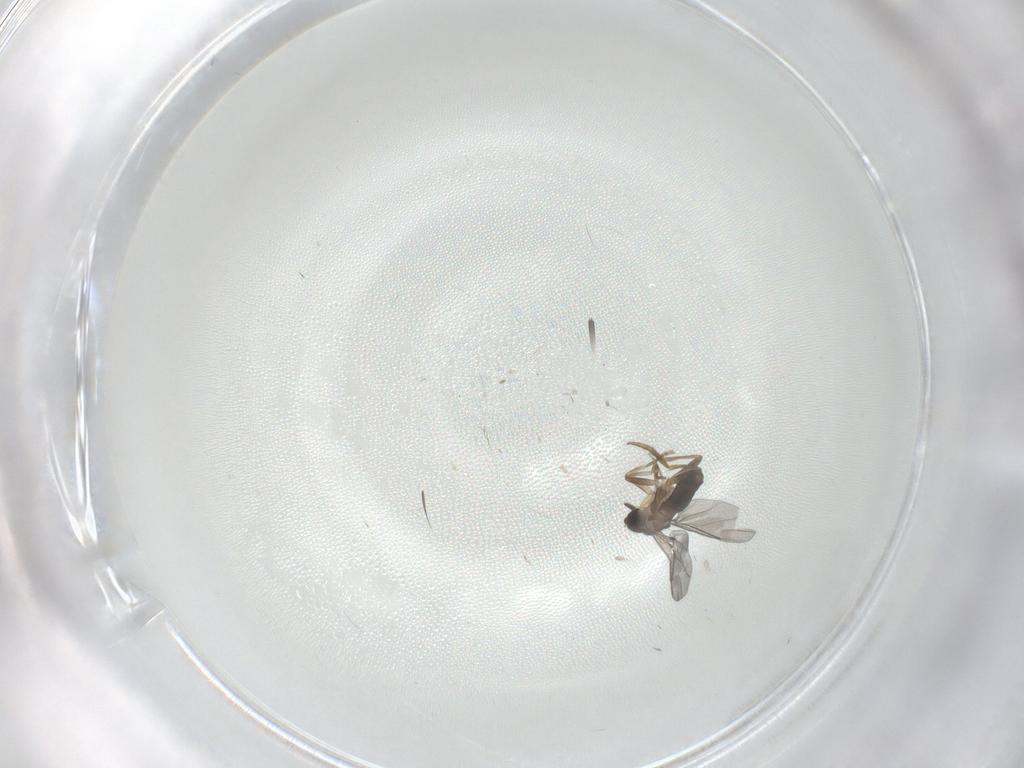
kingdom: Animalia
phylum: Arthropoda
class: Insecta
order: Diptera
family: Cecidomyiidae
